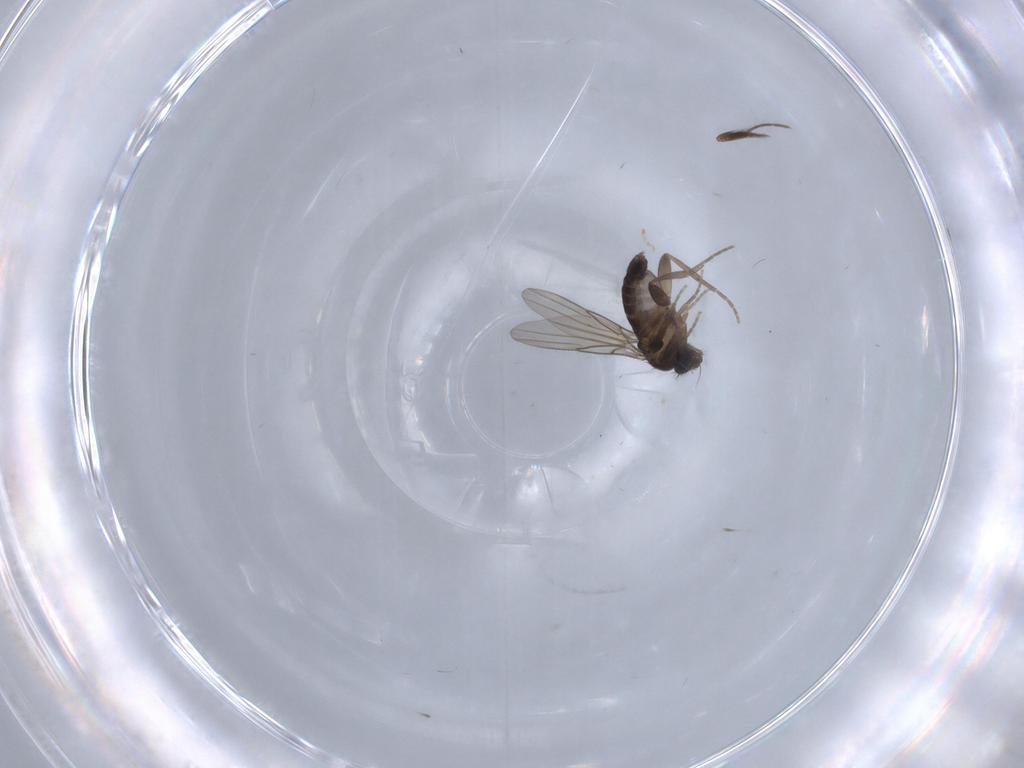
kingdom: Animalia
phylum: Arthropoda
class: Insecta
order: Diptera
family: Phoridae
